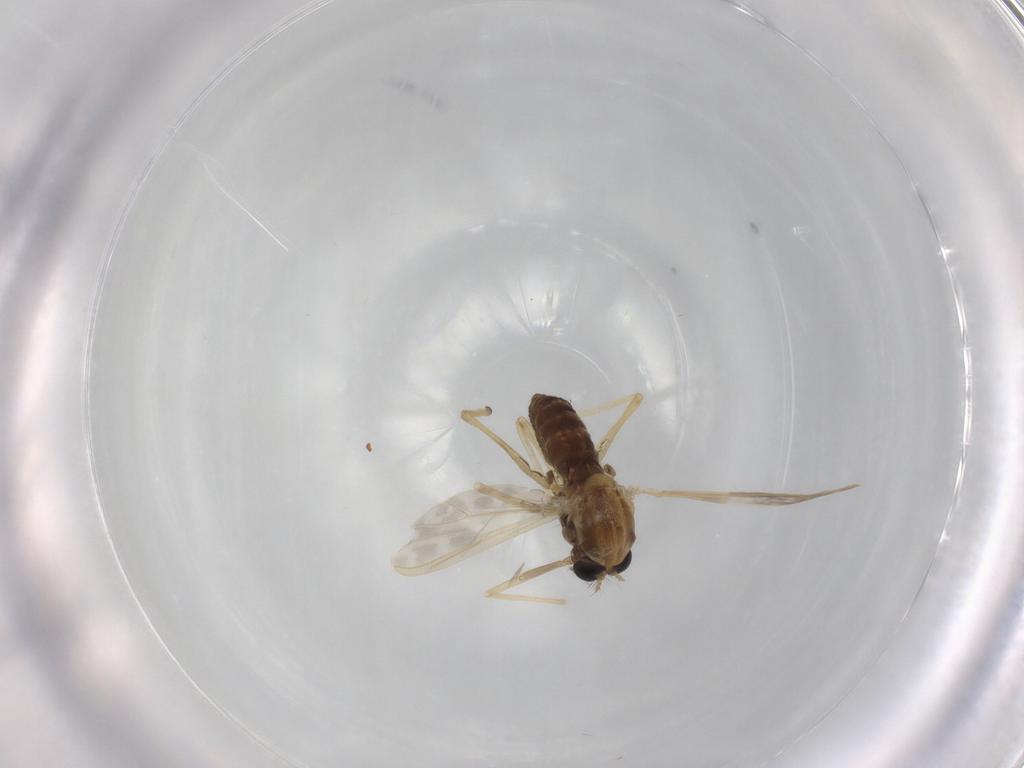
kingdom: Animalia
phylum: Arthropoda
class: Insecta
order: Diptera
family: Chironomidae
